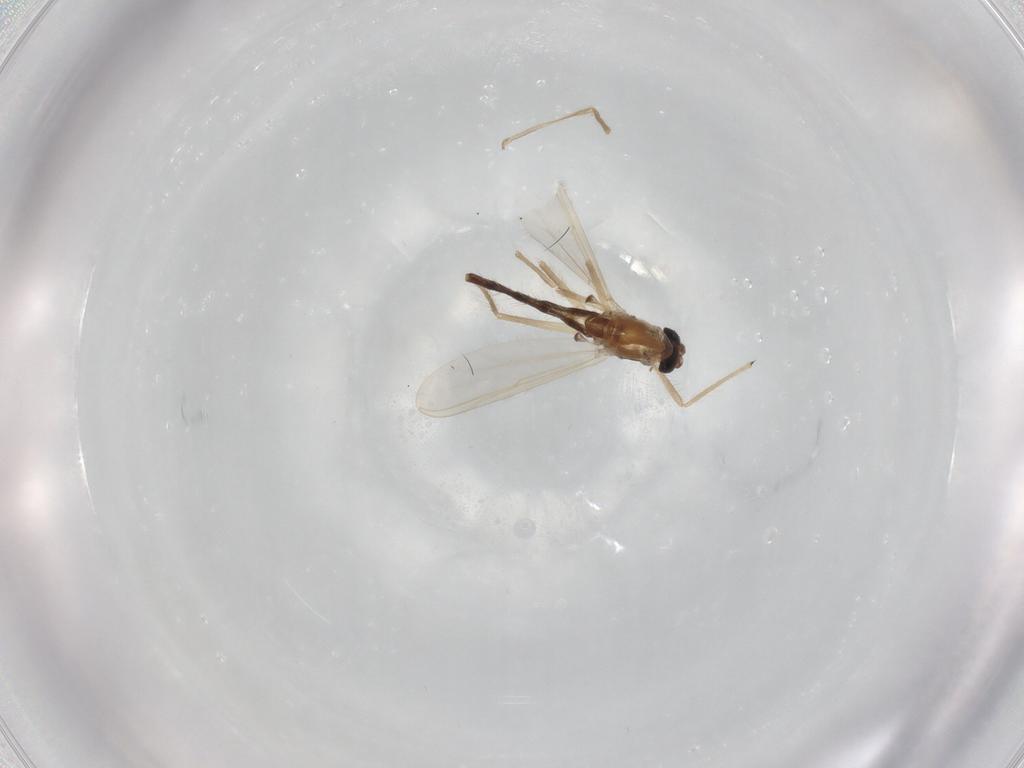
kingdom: Animalia
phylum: Arthropoda
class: Insecta
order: Diptera
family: Chironomidae
